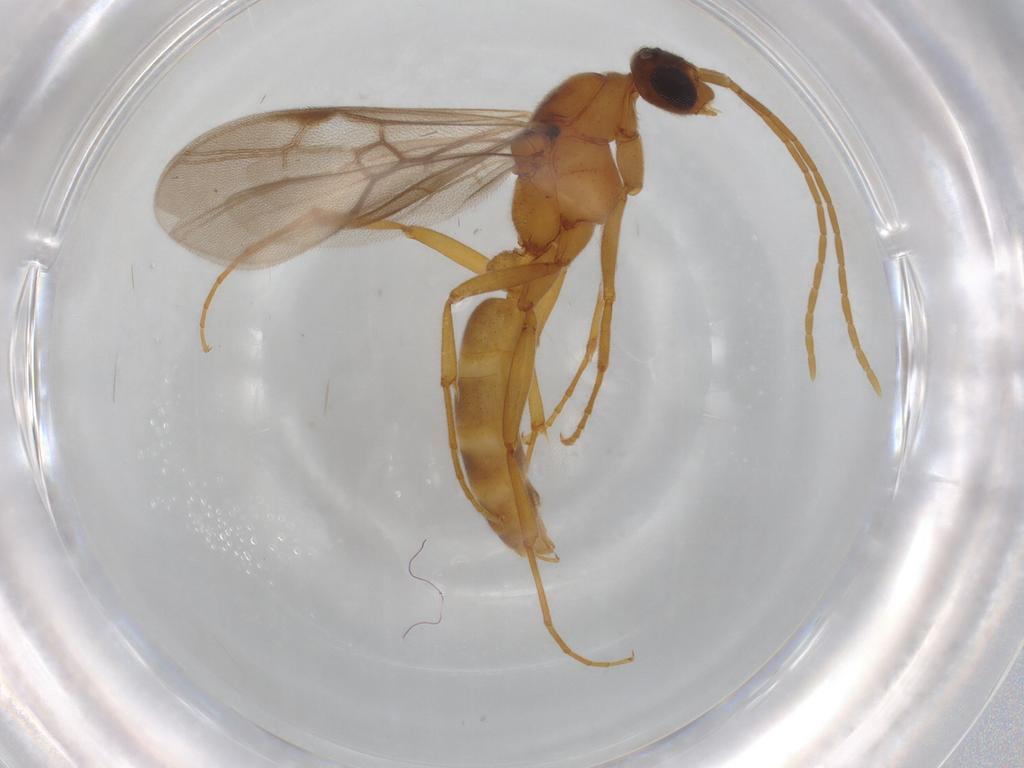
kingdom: Animalia
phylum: Arthropoda
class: Insecta
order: Hymenoptera
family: Formicidae
